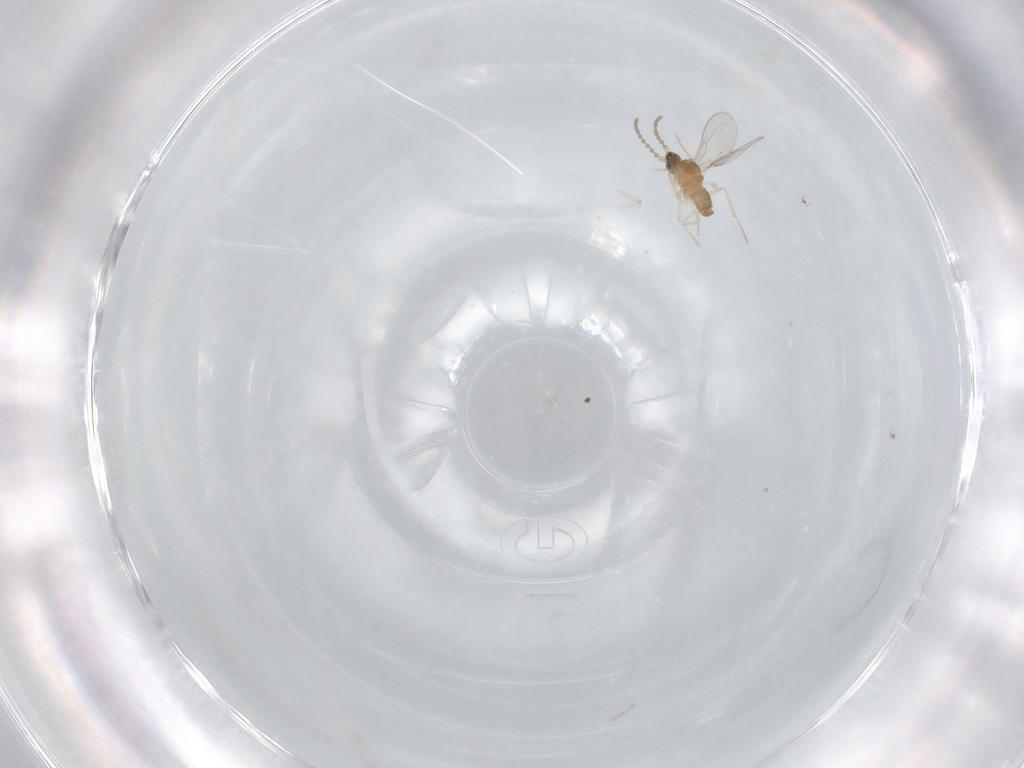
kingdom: Animalia
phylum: Arthropoda
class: Insecta
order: Diptera
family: Cecidomyiidae
